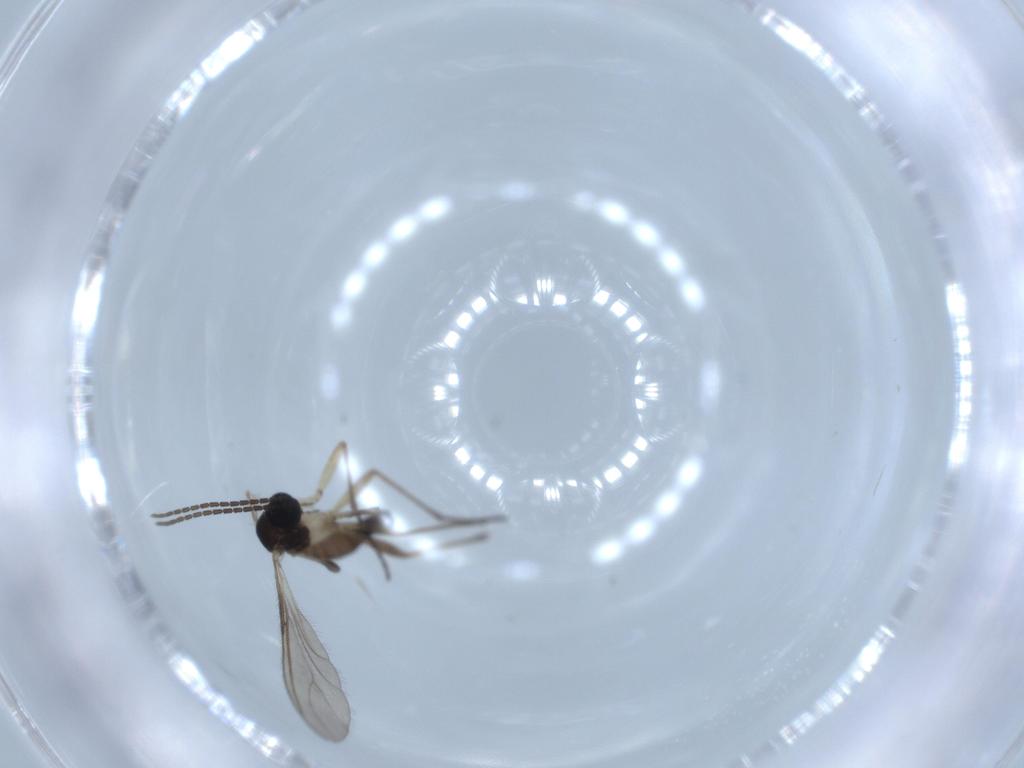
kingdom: Animalia
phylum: Arthropoda
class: Insecta
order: Diptera
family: Sciaridae
